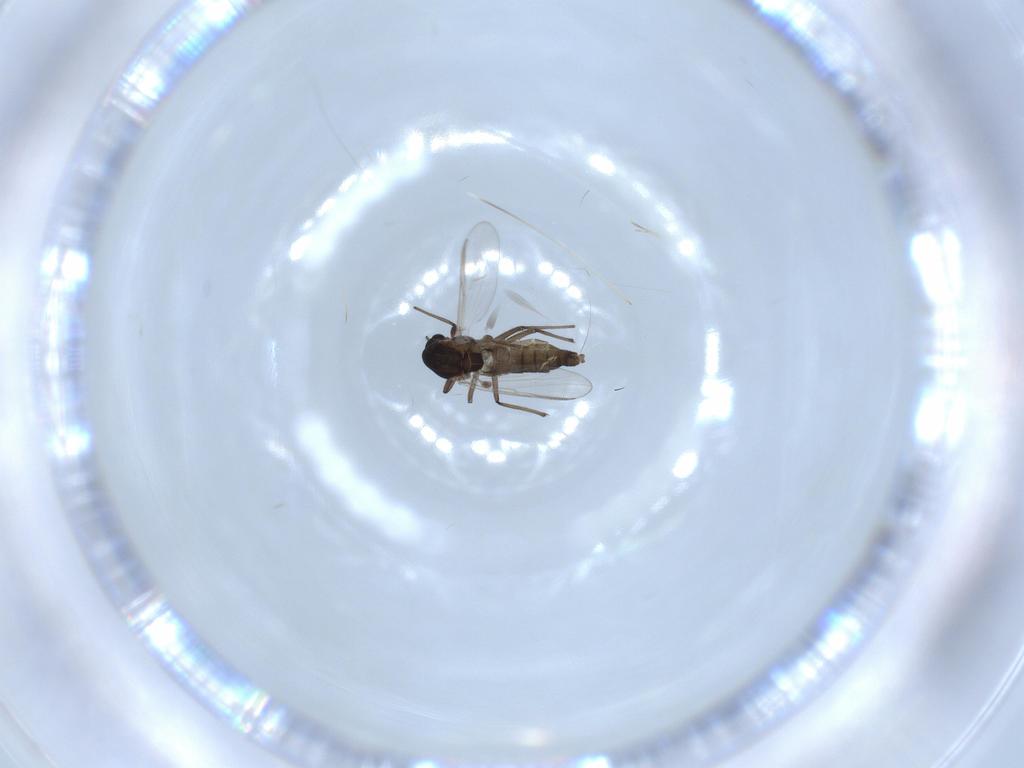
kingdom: Animalia
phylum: Arthropoda
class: Insecta
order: Diptera
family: Chironomidae
